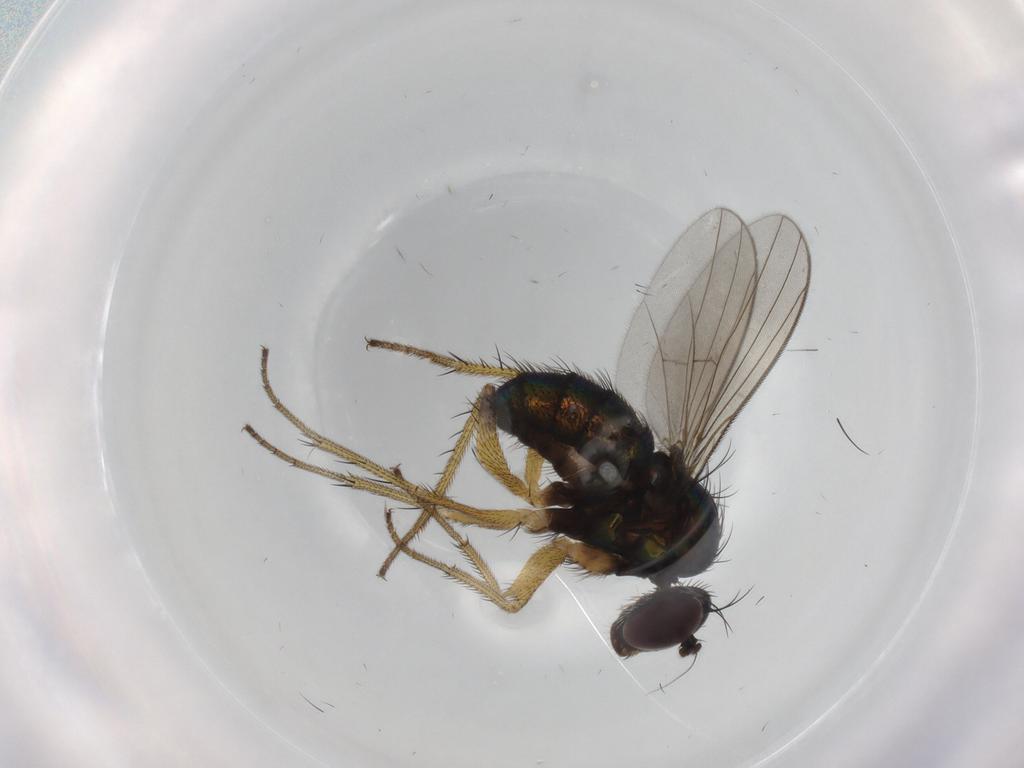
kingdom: Animalia
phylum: Arthropoda
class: Insecta
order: Diptera
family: Dolichopodidae
